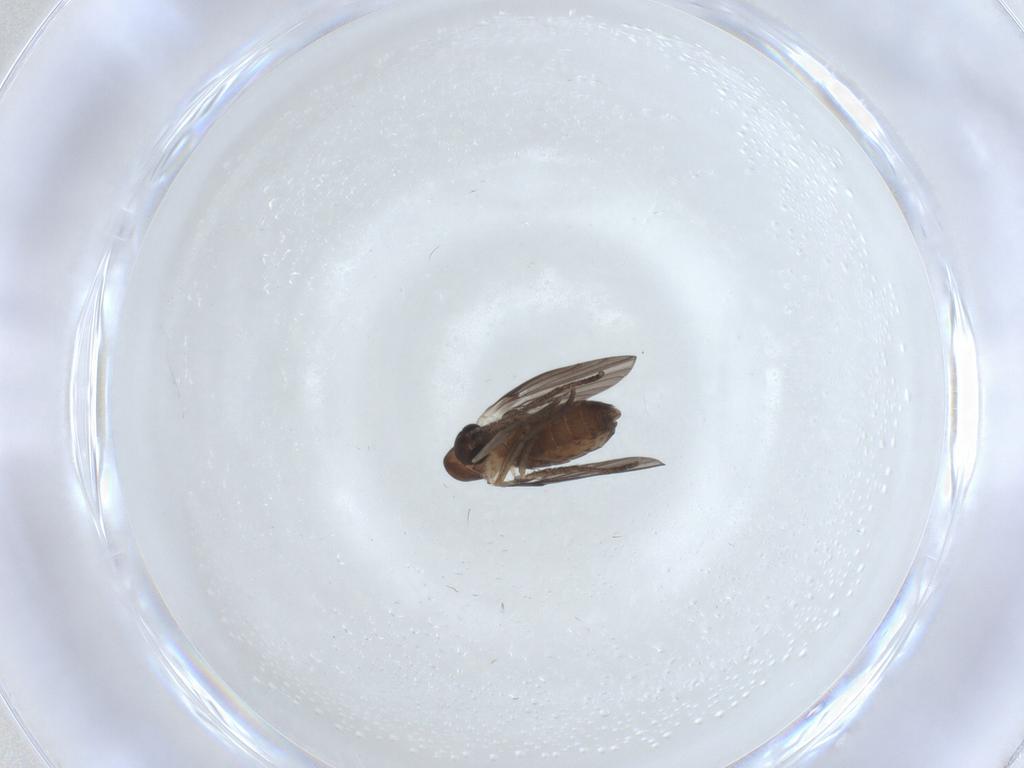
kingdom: Animalia
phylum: Arthropoda
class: Insecta
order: Diptera
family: Clusiidae
